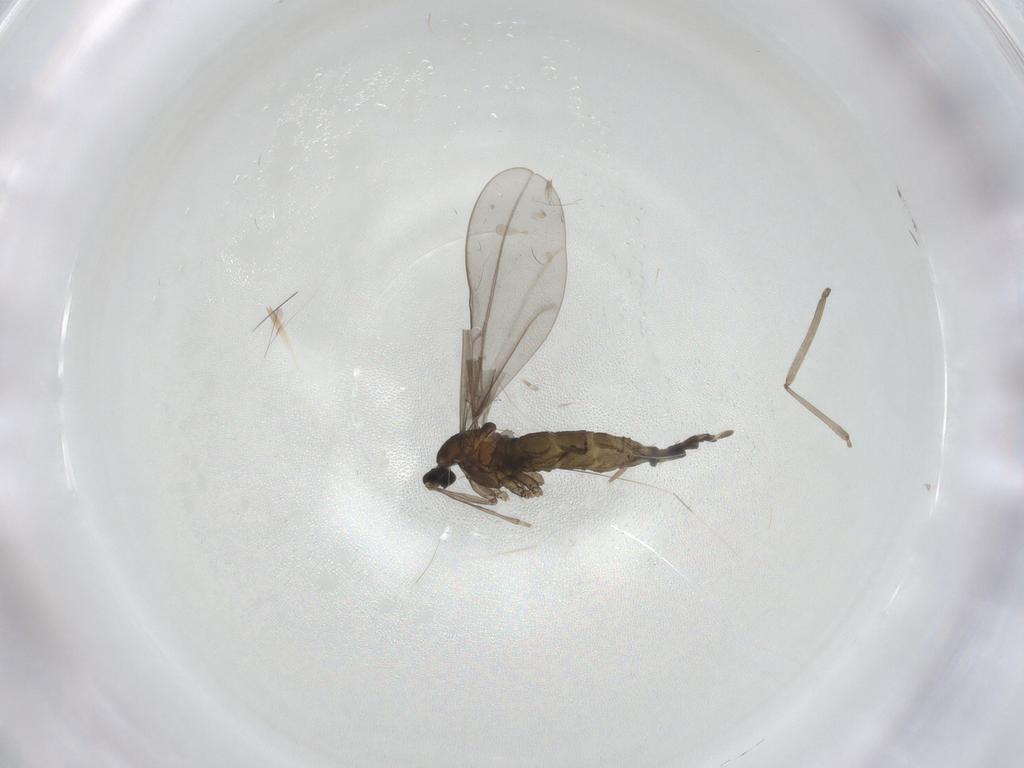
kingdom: Animalia
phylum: Arthropoda
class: Insecta
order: Diptera
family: Cecidomyiidae
